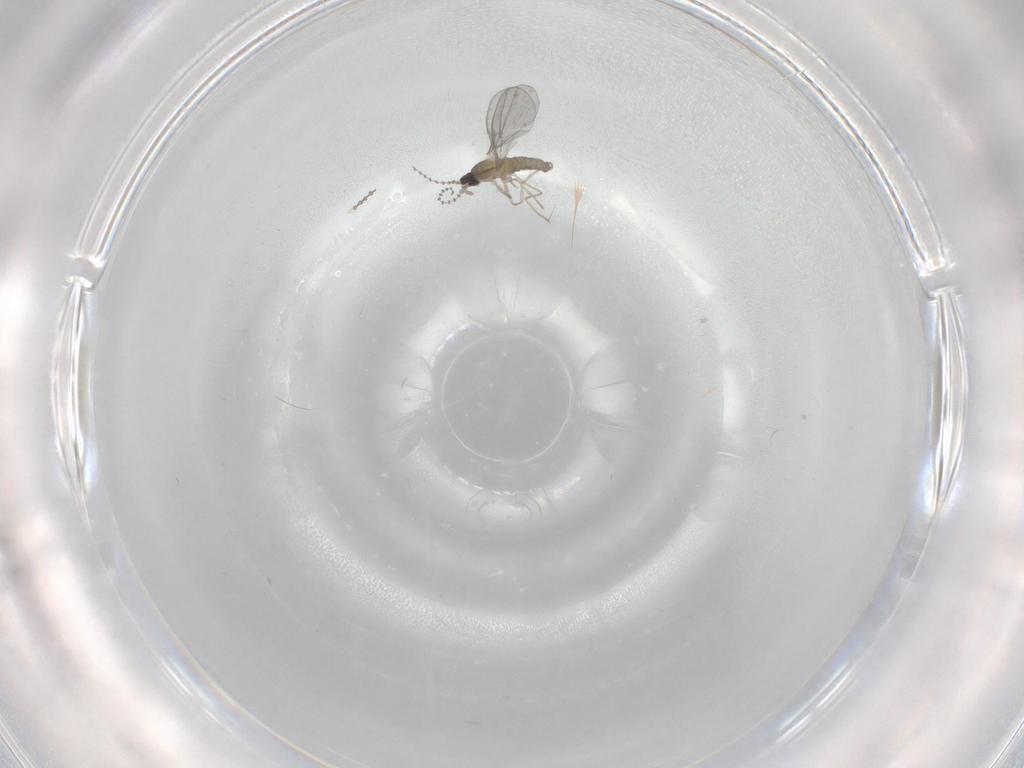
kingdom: Animalia
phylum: Arthropoda
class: Insecta
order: Diptera
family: Cecidomyiidae
